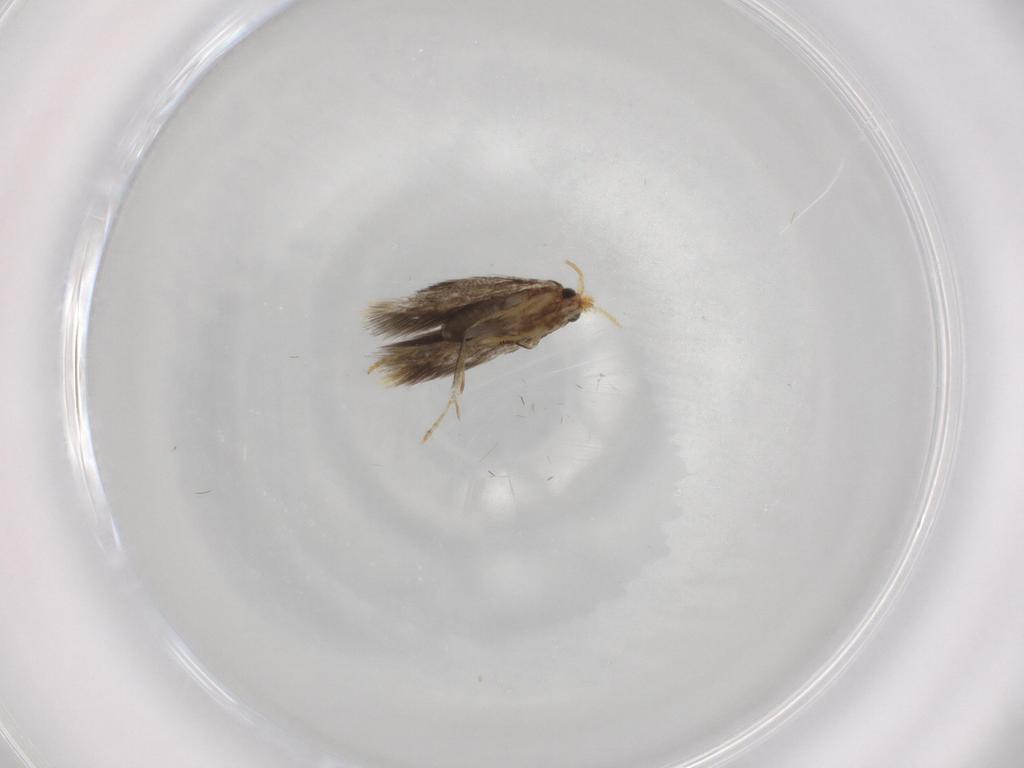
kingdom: Animalia
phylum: Arthropoda
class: Insecta
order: Lepidoptera
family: Copromorphidae
